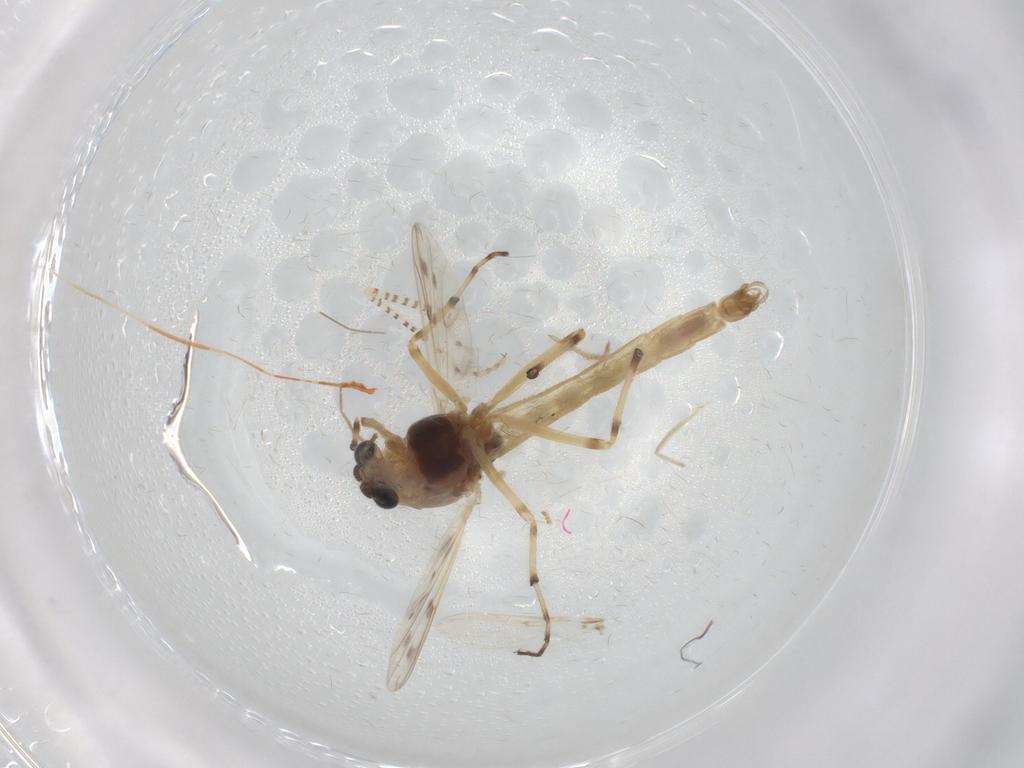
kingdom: Animalia
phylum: Arthropoda
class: Insecta
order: Diptera
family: Chaoboridae
